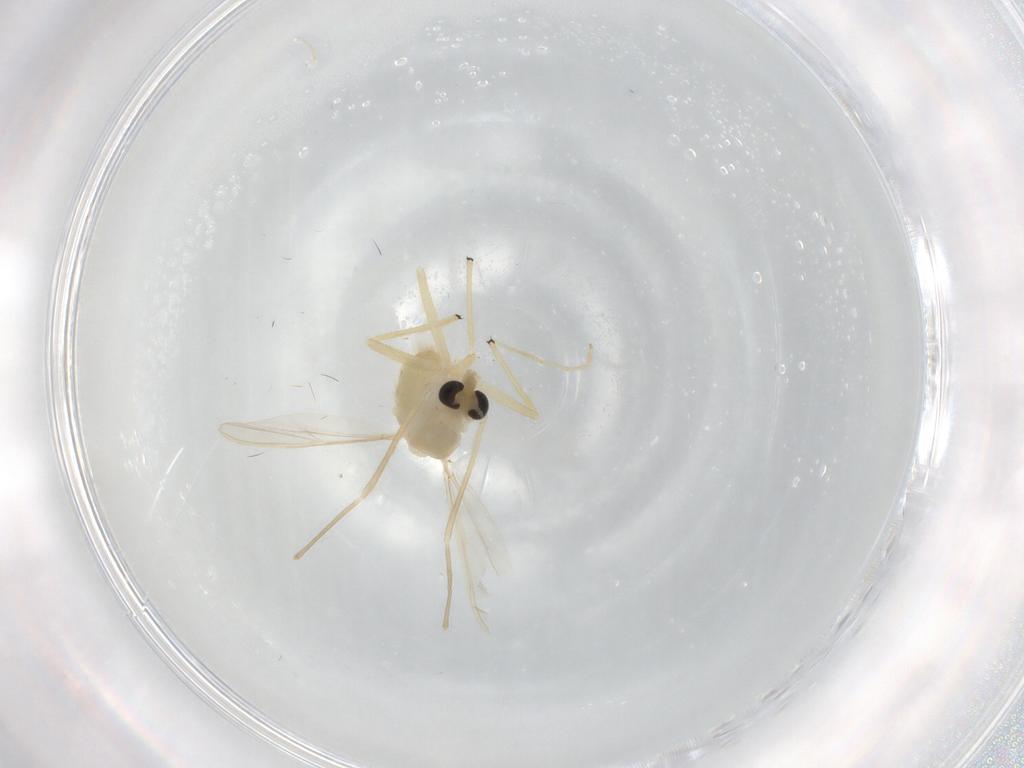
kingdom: Animalia
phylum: Arthropoda
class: Insecta
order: Diptera
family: Chironomidae
